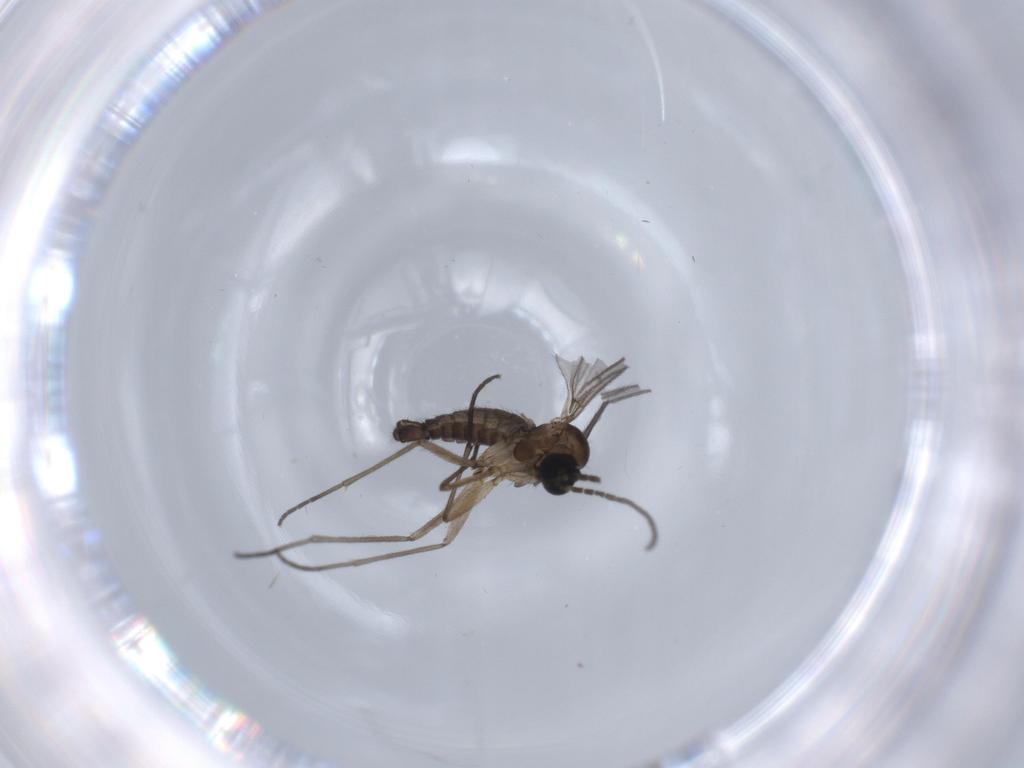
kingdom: Animalia
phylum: Arthropoda
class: Insecta
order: Diptera
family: Sciaridae
